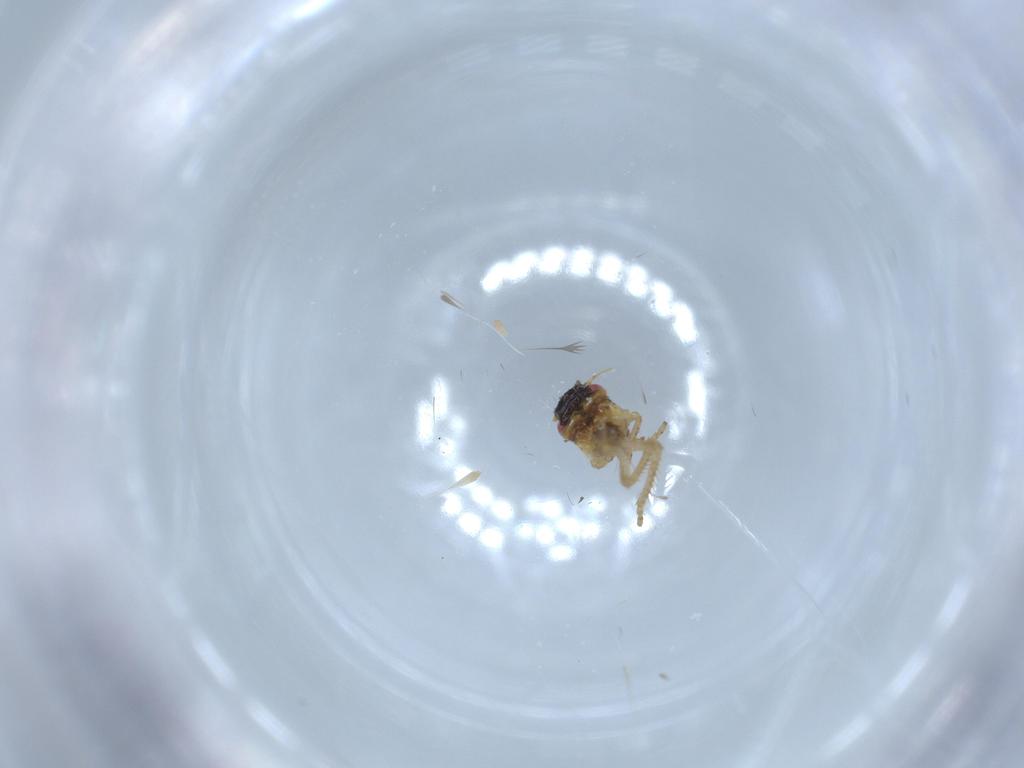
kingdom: Animalia
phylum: Arthropoda
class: Insecta
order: Hemiptera
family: Cicadellidae
